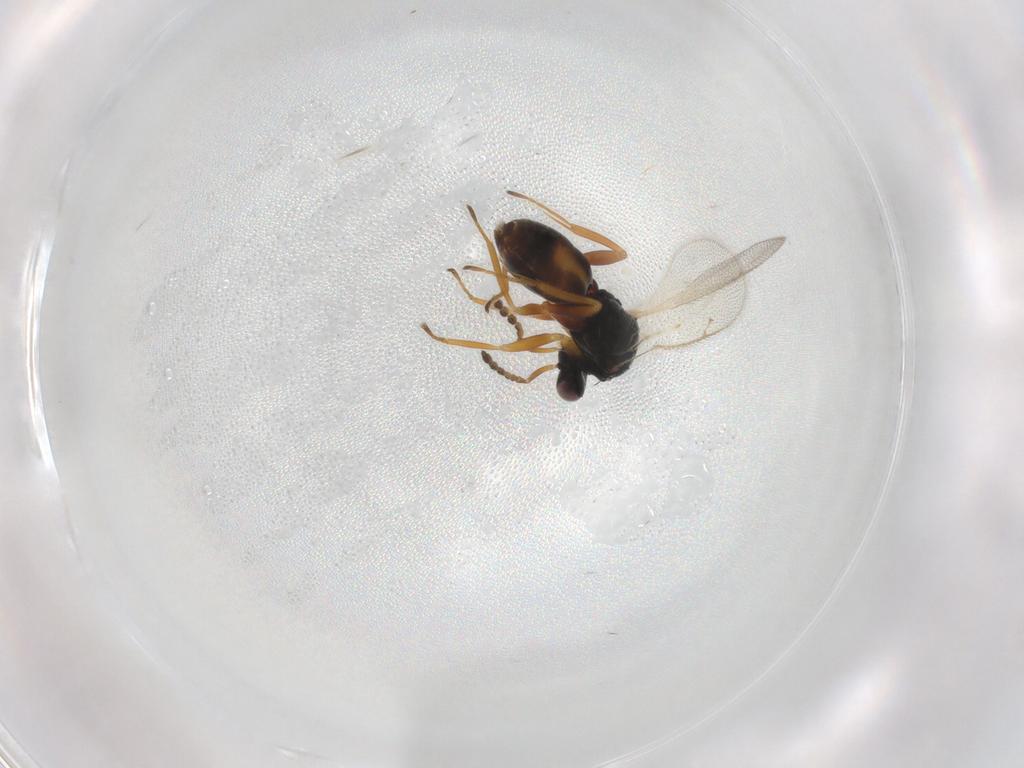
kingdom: Animalia
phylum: Arthropoda
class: Insecta
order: Hymenoptera
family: Eulophidae
